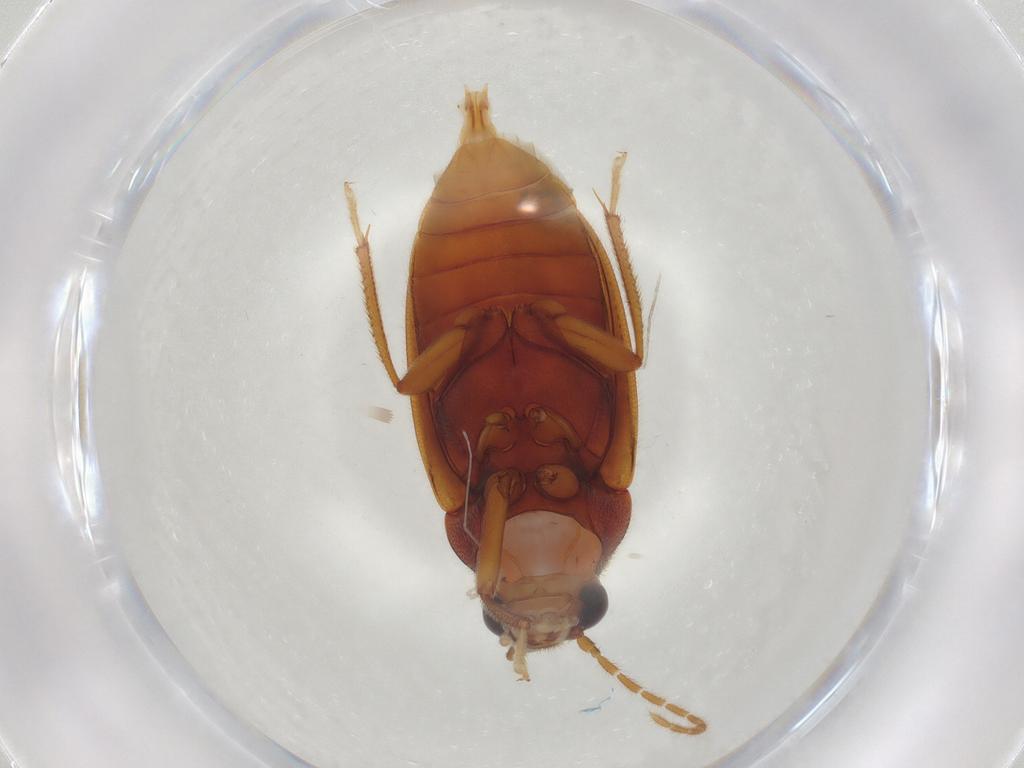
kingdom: Animalia
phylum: Arthropoda
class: Insecta
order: Coleoptera
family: Ptilodactylidae
